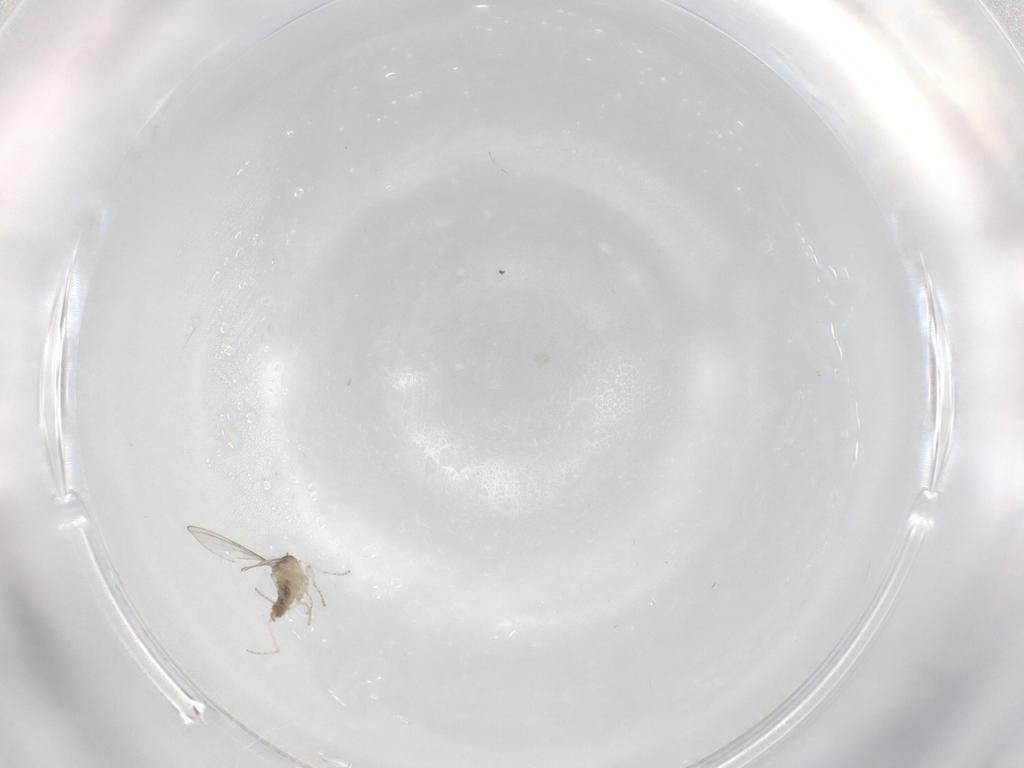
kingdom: Animalia
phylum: Arthropoda
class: Insecta
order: Diptera
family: Cecidomyiidae
